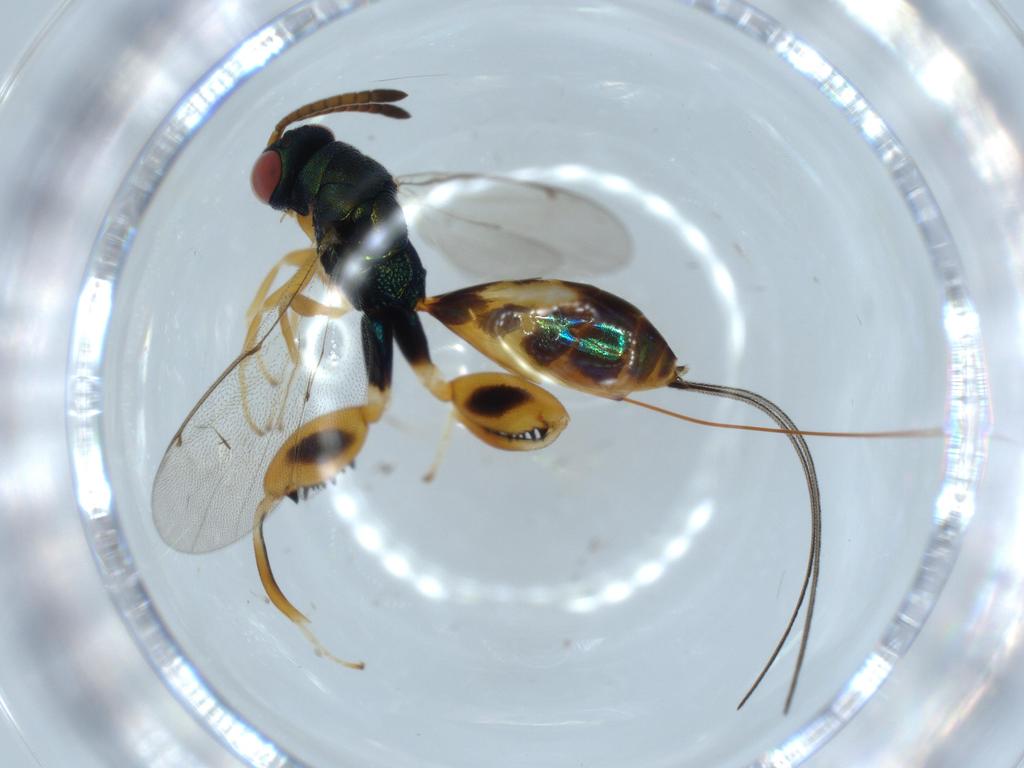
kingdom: Animalia
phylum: Arthropoda
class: Insecta
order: Hymenoptera
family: Torymidae
